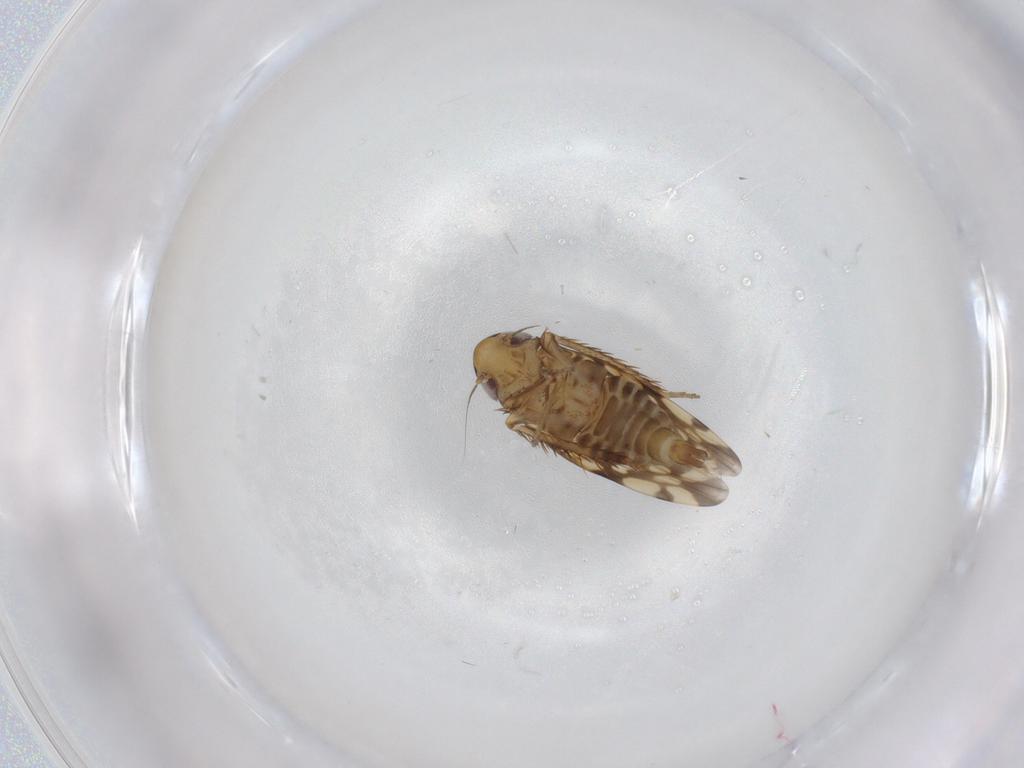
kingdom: Animalia
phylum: Arthropoda
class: Insecta
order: Hemiptera
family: Cicadellidae
